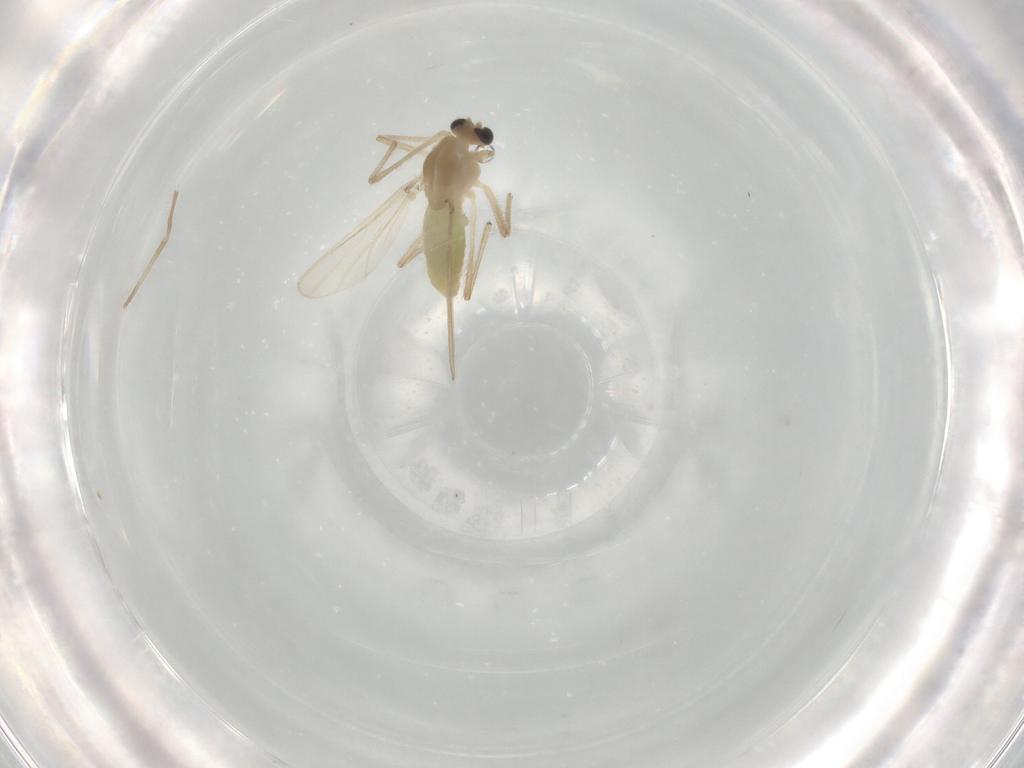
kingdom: Animalia
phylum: Arthropoda
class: Insecta
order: Diptera
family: Chironomidae
